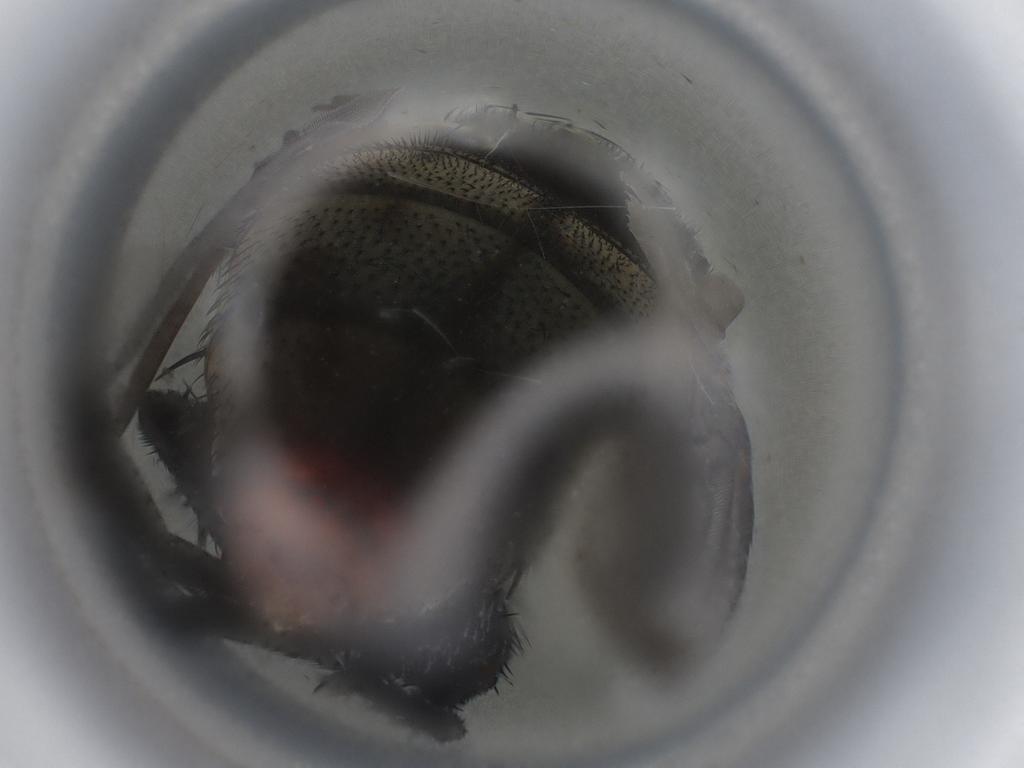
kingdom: Animalia
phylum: Arthropoda
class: Insecta
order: Diptera
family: Sarcophagidae
